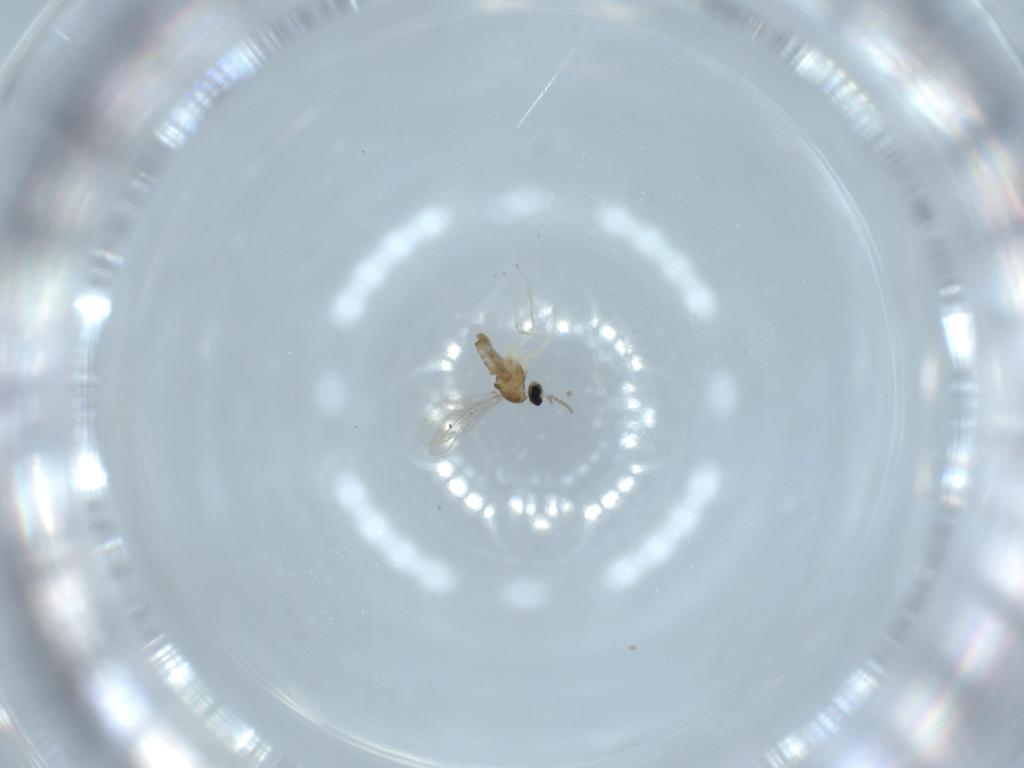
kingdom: Animalia
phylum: Arthropoda
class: Insecta
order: Diptera
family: Cecidomyiidae
